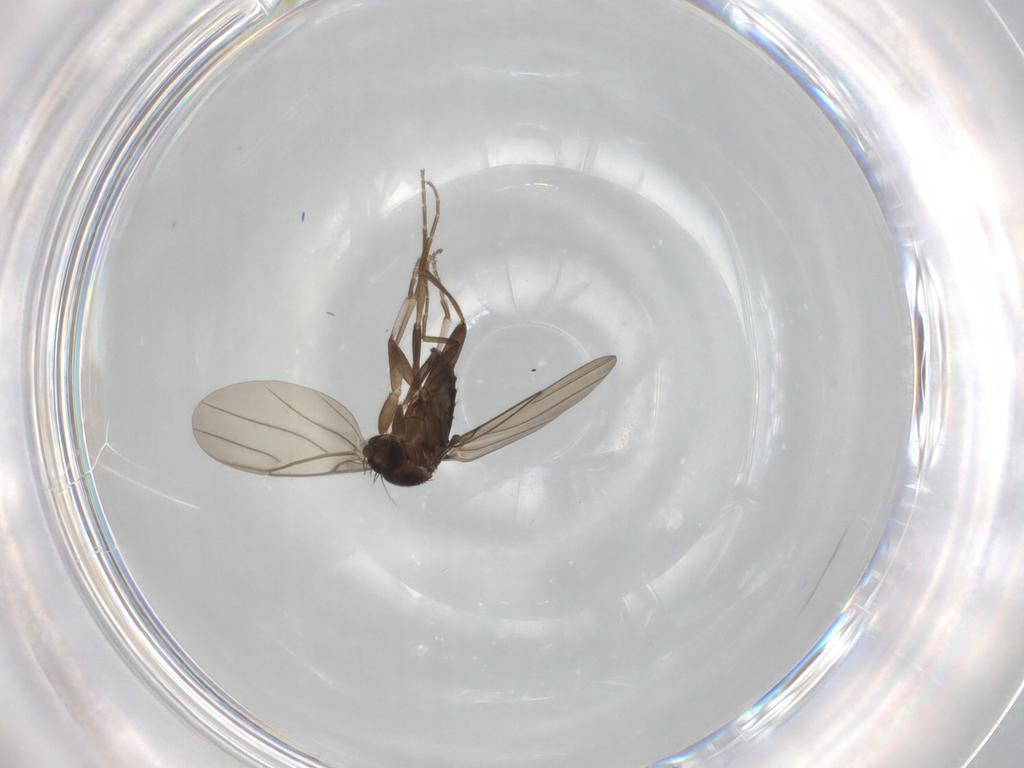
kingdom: Animalia
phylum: Arthropoda
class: Insecta
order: Diptera
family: Phoridae
